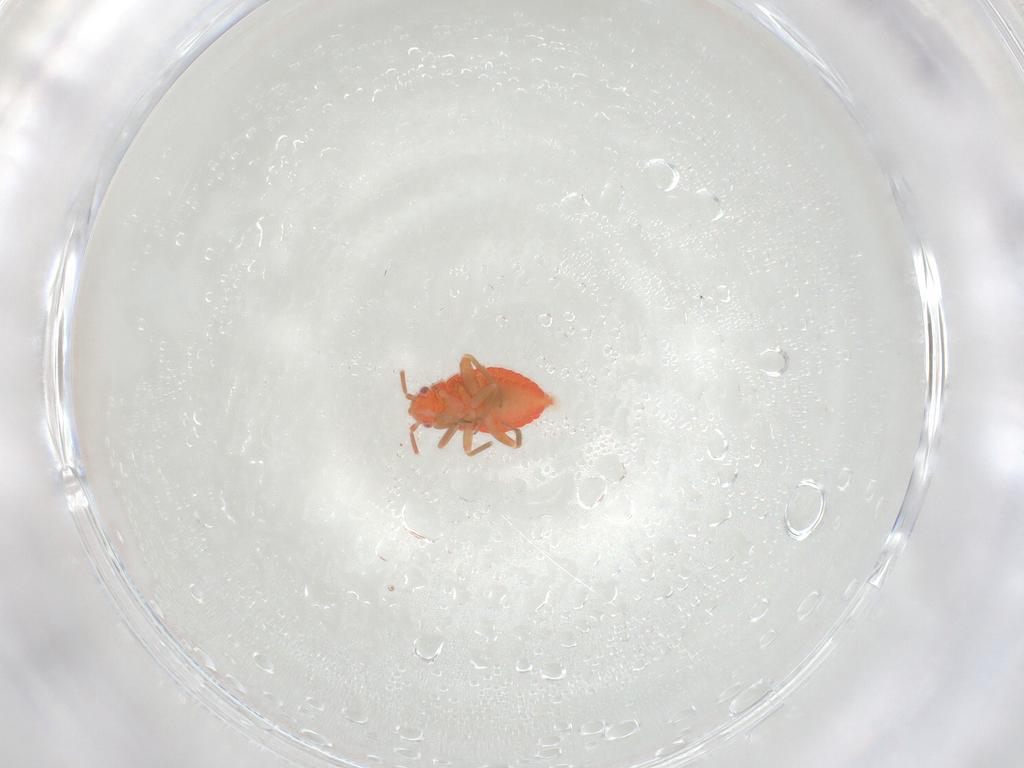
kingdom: Animalia
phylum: Arthropoda
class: Insecta
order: Hemiptera
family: Miridae
